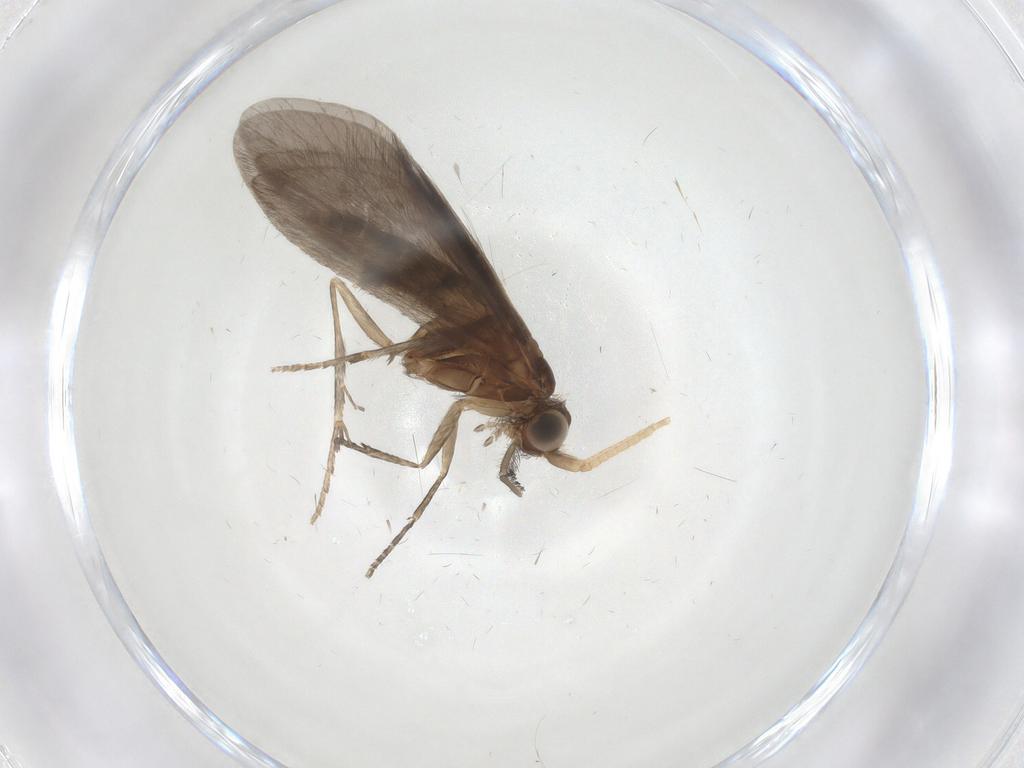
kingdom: Animalia
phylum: Arthropoda
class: Insecta
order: Trichoptera
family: Helicopsychidae
